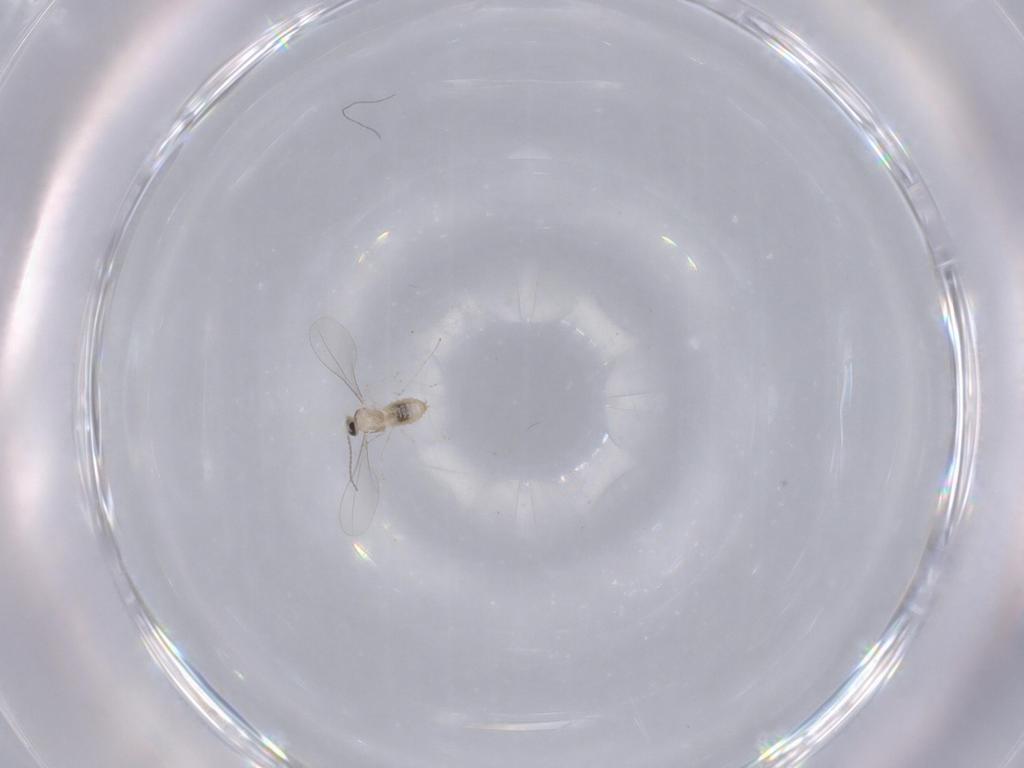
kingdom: Animalia
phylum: Arthropoda
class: Insecta
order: Diptera
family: Cecidomyiidae
